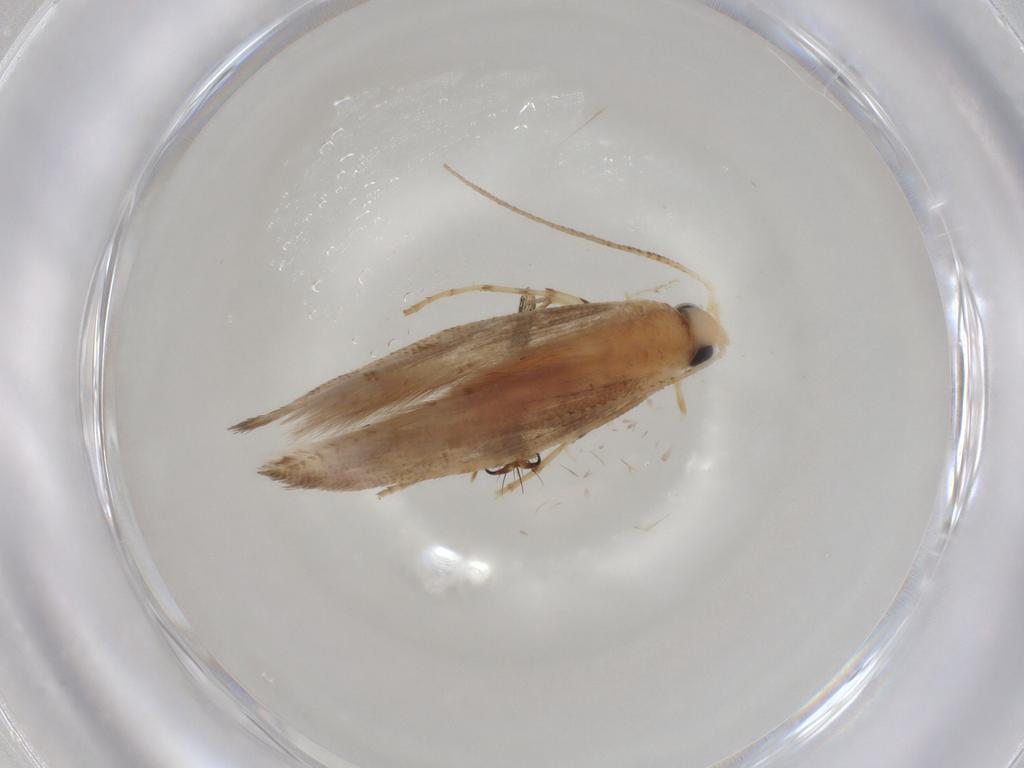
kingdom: Animalia
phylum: Arthropoda
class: Insecta
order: Lepidoptera
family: Argyresthiidae
